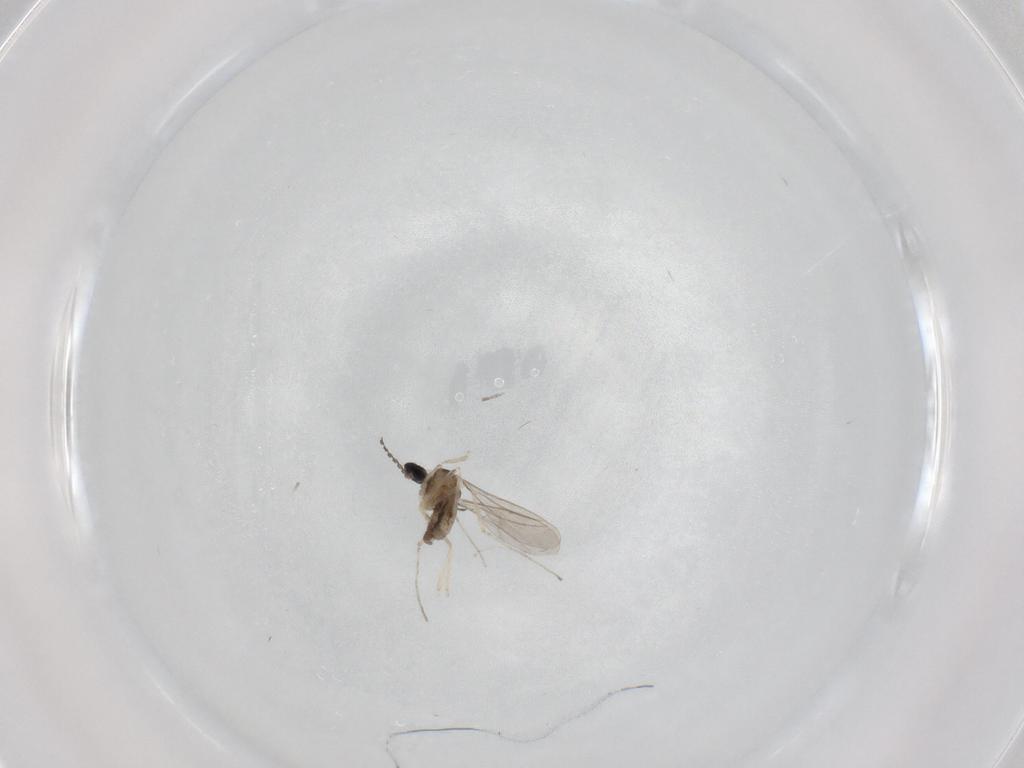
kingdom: Animalia
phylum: Arthropoda
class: Insecta
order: Diptera
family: Cecidomyiidae
